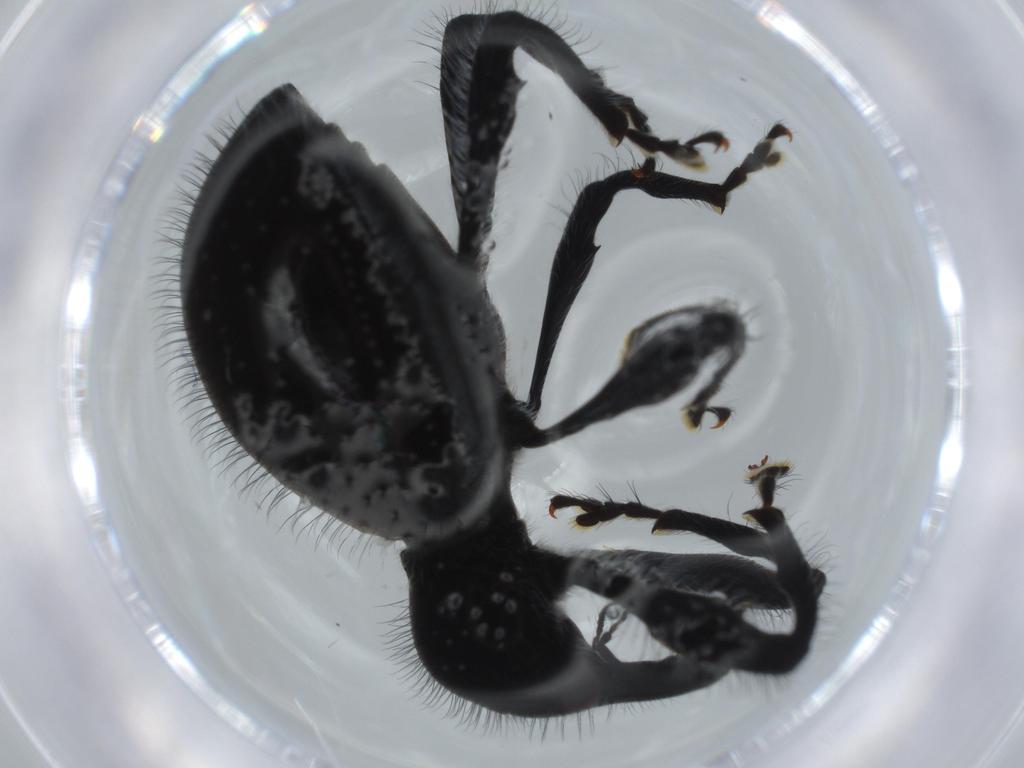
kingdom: Animalia
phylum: Arthropoda
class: Insecta
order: Coleoptera
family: Curculionidae
